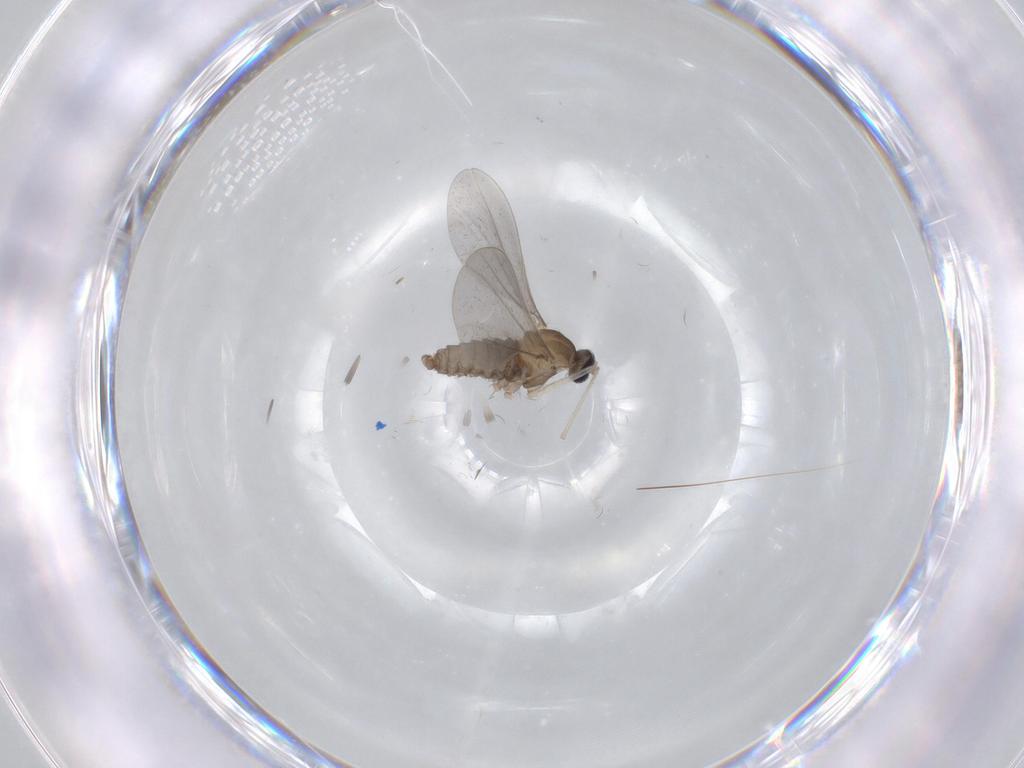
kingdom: Animalia
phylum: Arthropoda
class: Insecta
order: Diptera
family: Cecidomyiidae
